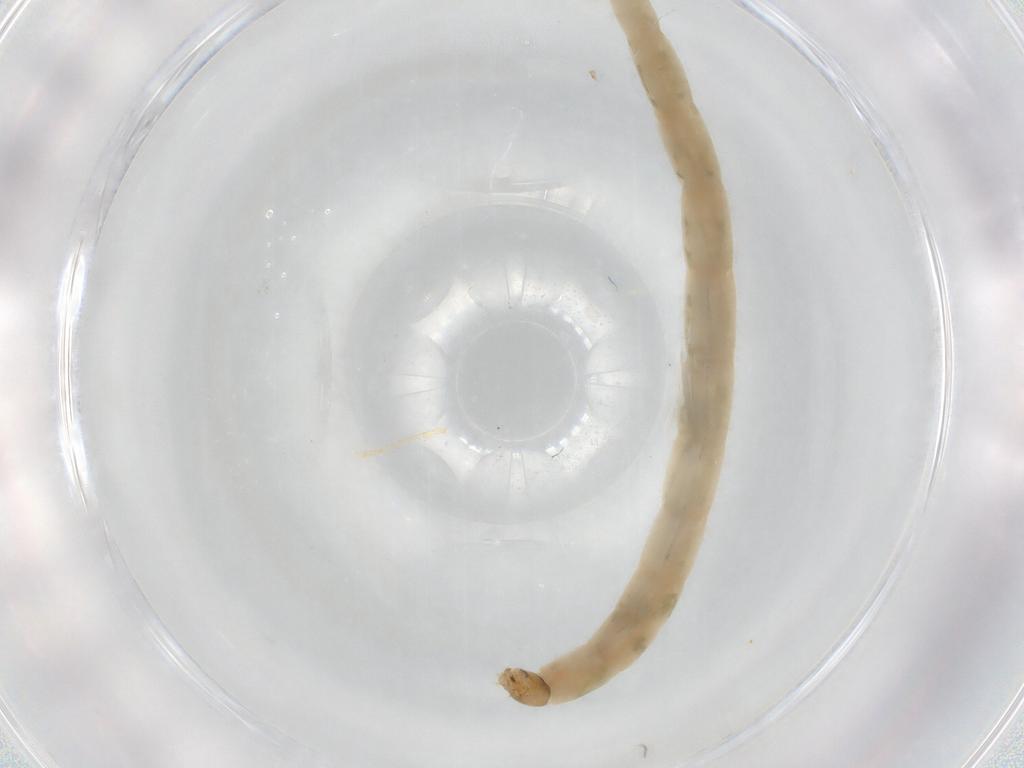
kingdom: Animalia
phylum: Arthropoda
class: Insecta
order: Diptera
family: Chironomidae
